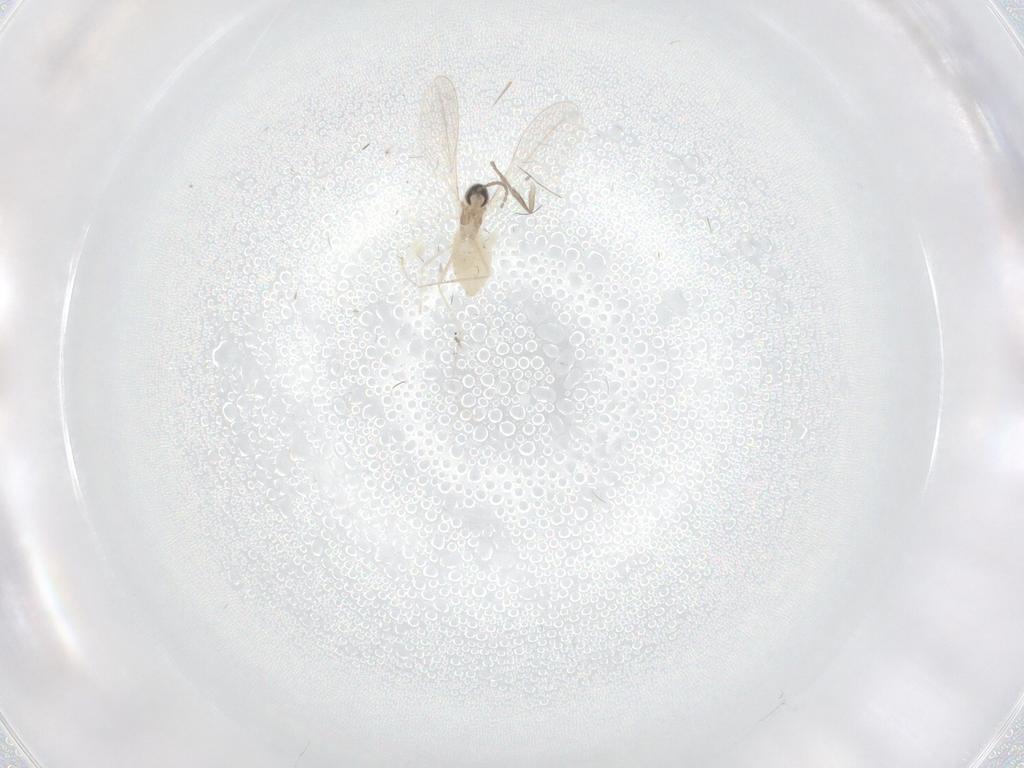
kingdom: Animalia
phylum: Arthropoda
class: Insecta
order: Diptera
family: Psychodidae
